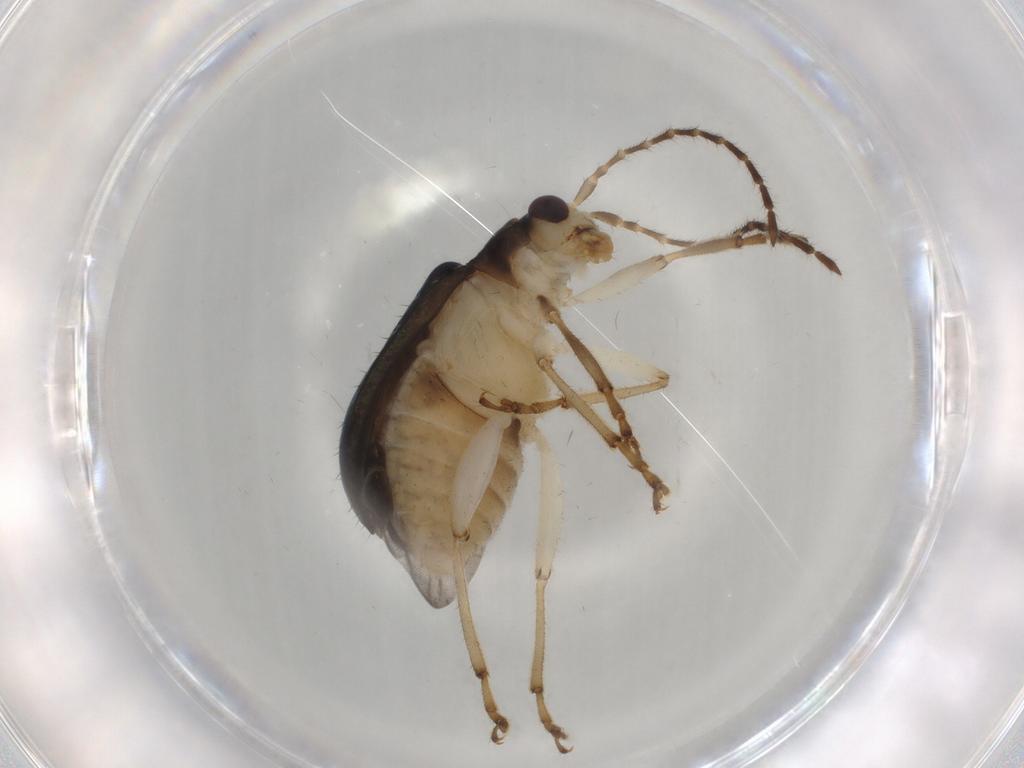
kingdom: Animalia
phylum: Arthropoda
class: Insecta
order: Coleoptera
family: Chrysomelidae
